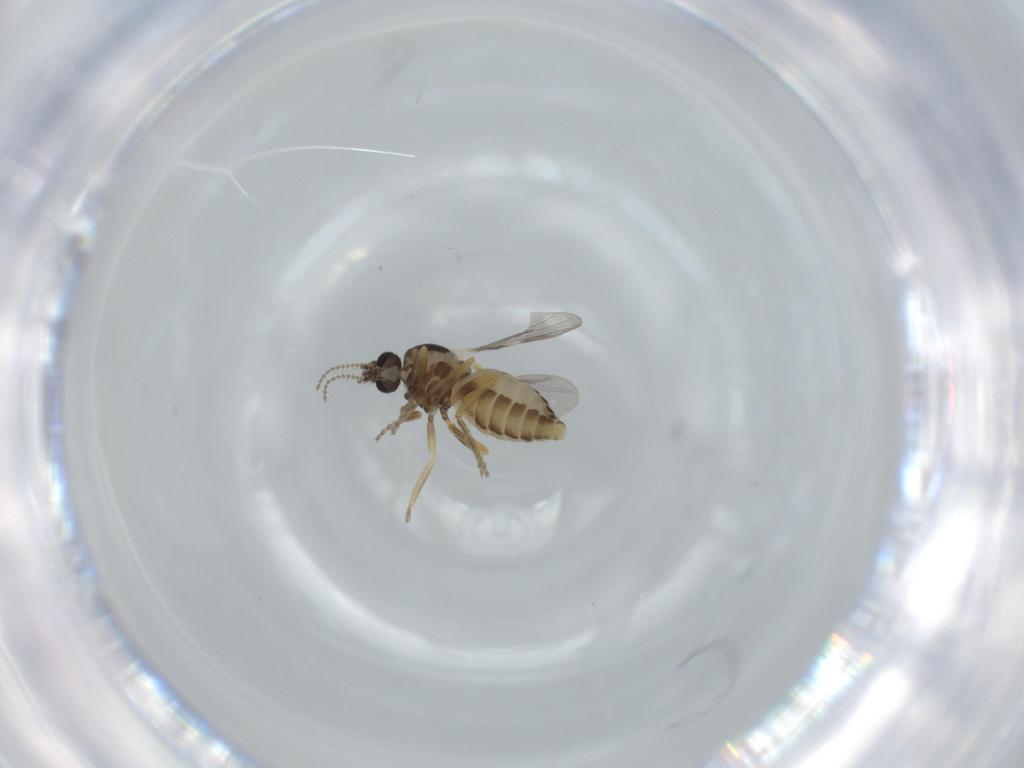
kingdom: Animalia
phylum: Arthropoda
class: Insecta
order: Diptera
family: Ceratopogonidae
